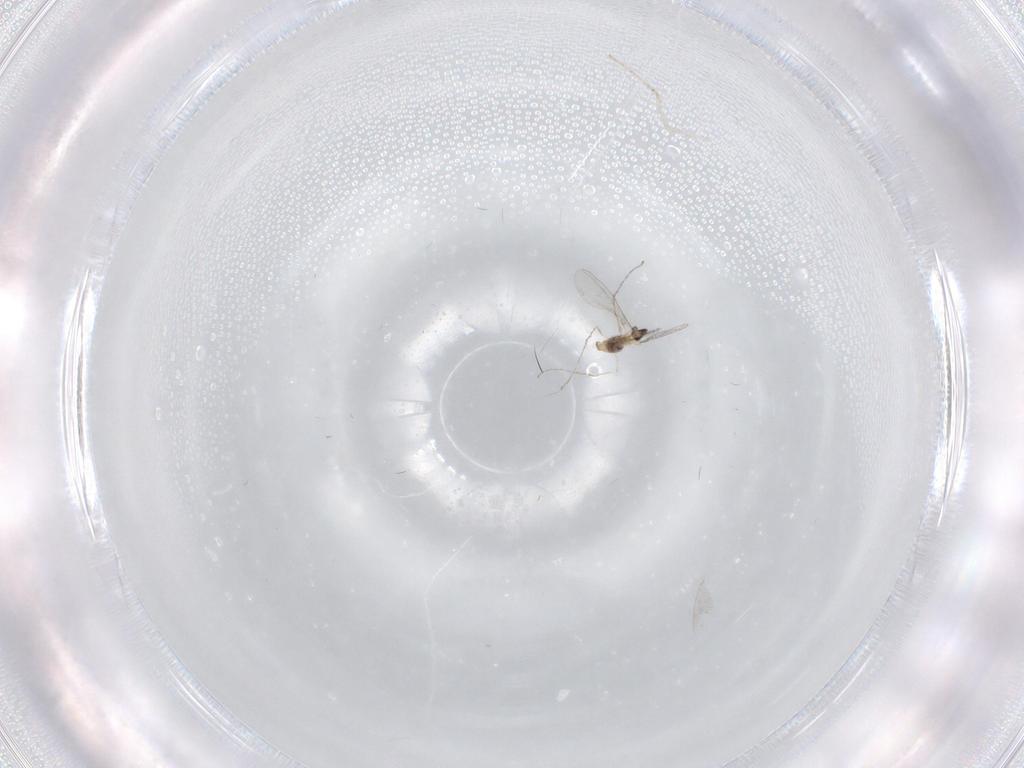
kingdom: Animalia
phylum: Arthropoda
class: Insecta
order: Diptera
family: Cecidomyiidae
